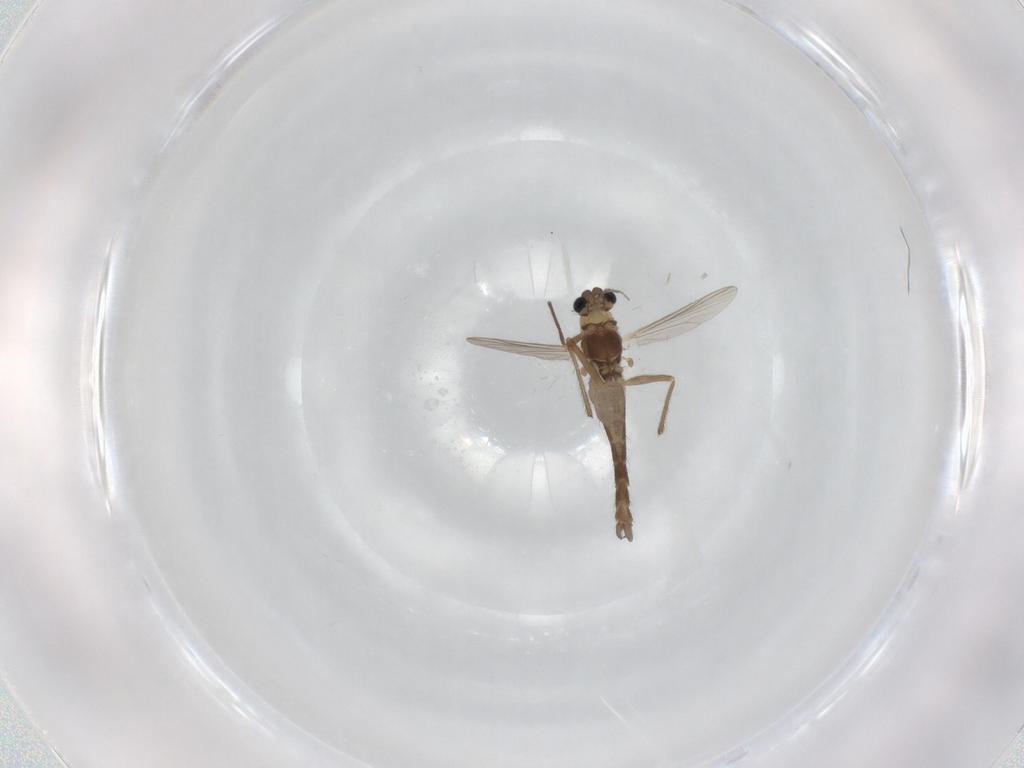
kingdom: Animalia
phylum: Arthropoda
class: Insecta
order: Diptera
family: Chironomidae
